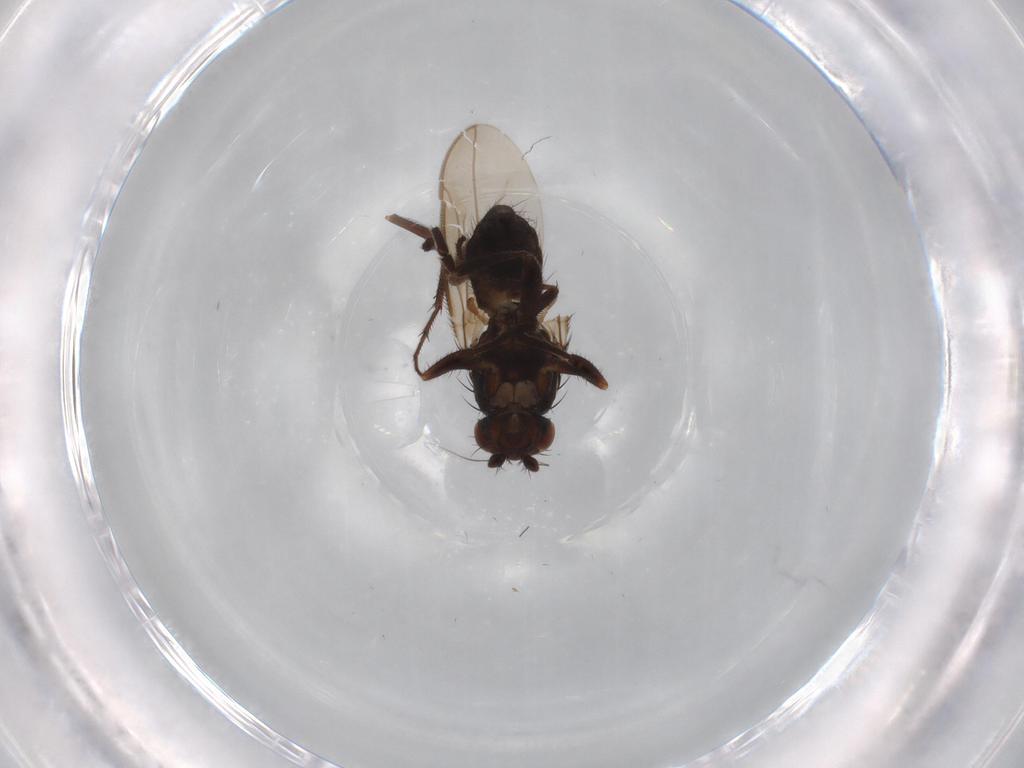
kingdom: Animalia
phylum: Arthropoda
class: Insecta
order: Diptera
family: Sphaeroceridae
